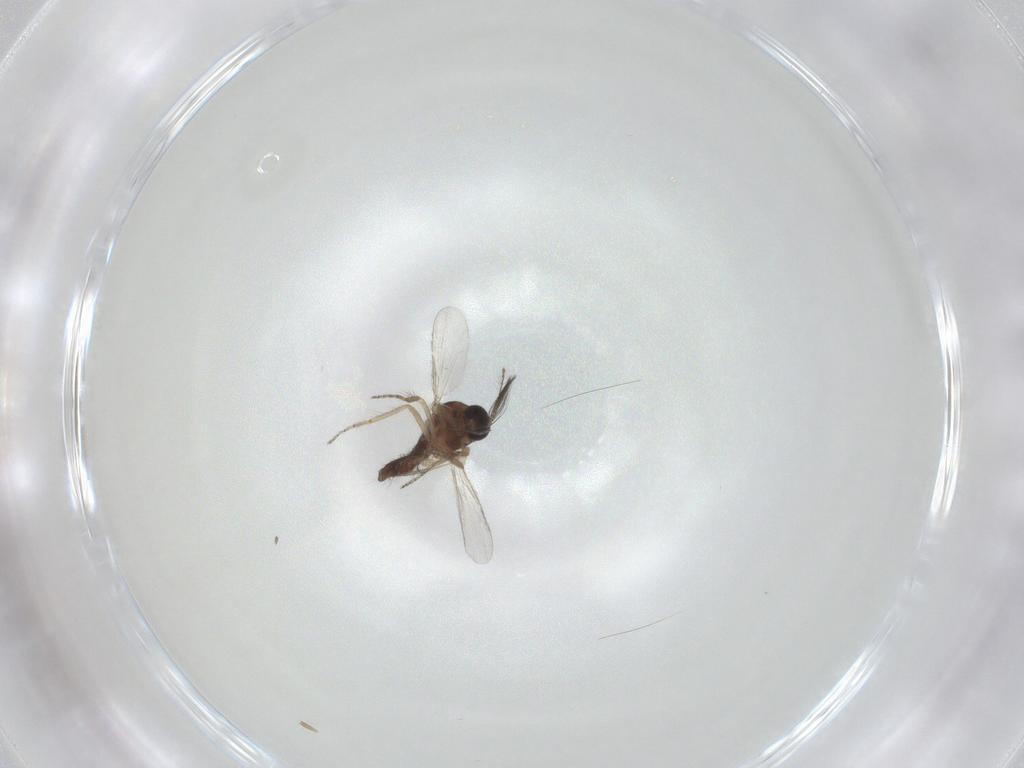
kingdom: Animalia
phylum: Arthropoda
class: Insecta
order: Diptera
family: Ceratopogonidae
